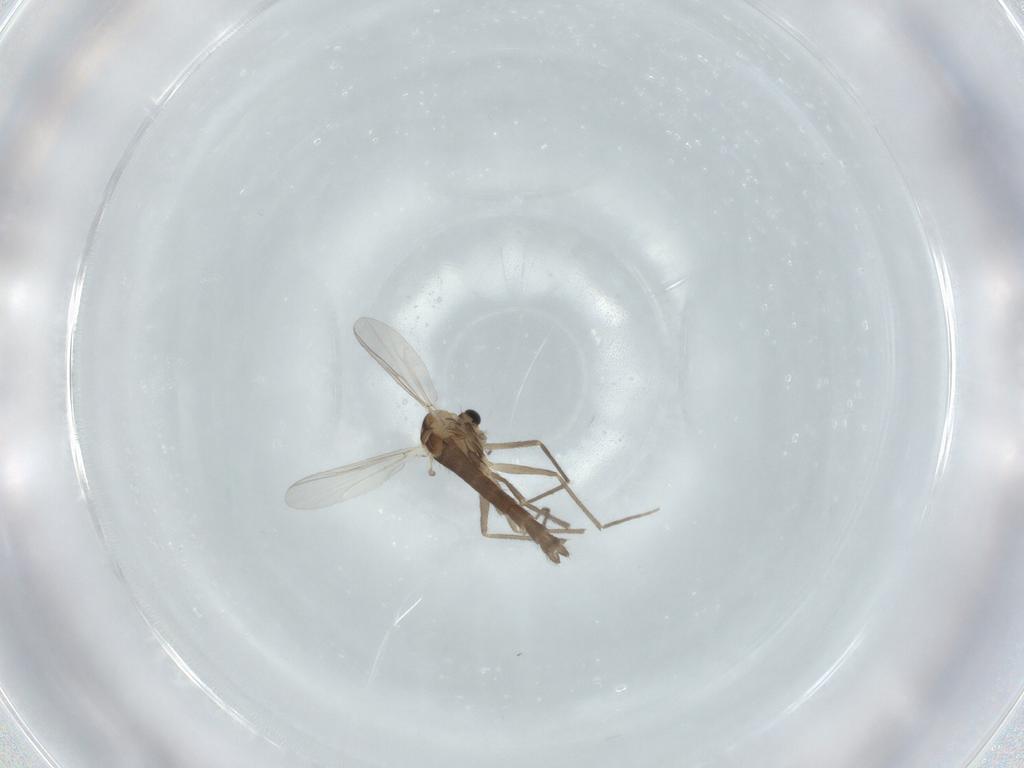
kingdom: Animalia
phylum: Arthropoda
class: Insecta
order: Diptera
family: Chironomidae
